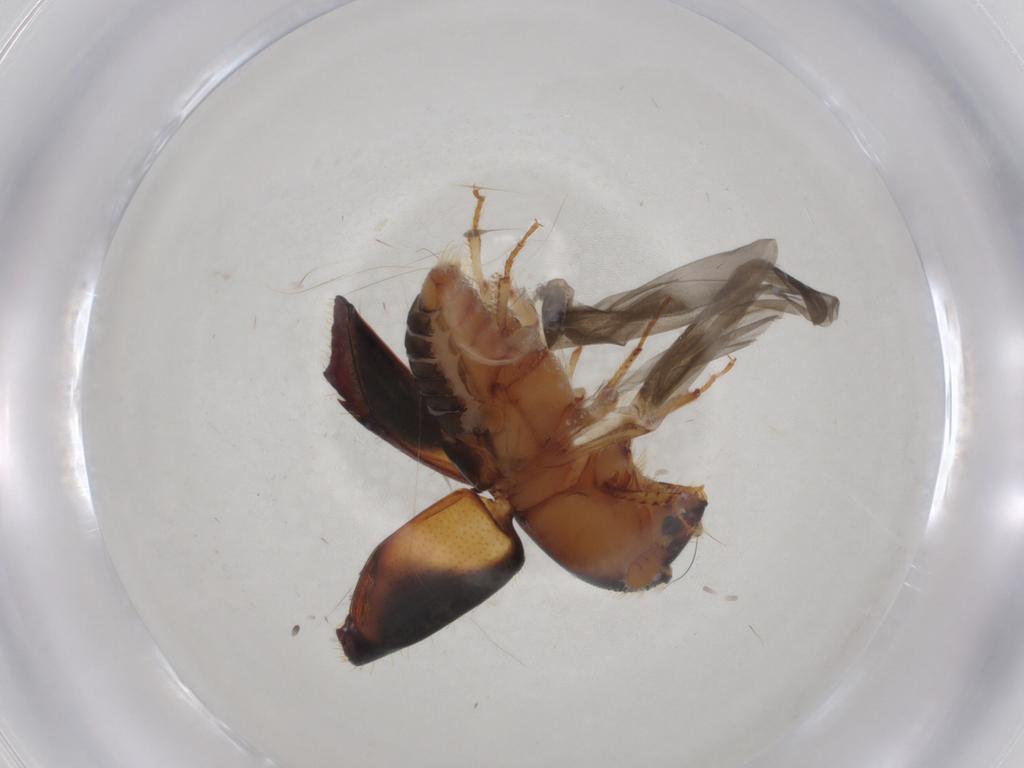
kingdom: Animalia
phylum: Arthropoda
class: Insecta
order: Coleoptera
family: Curculionidae
